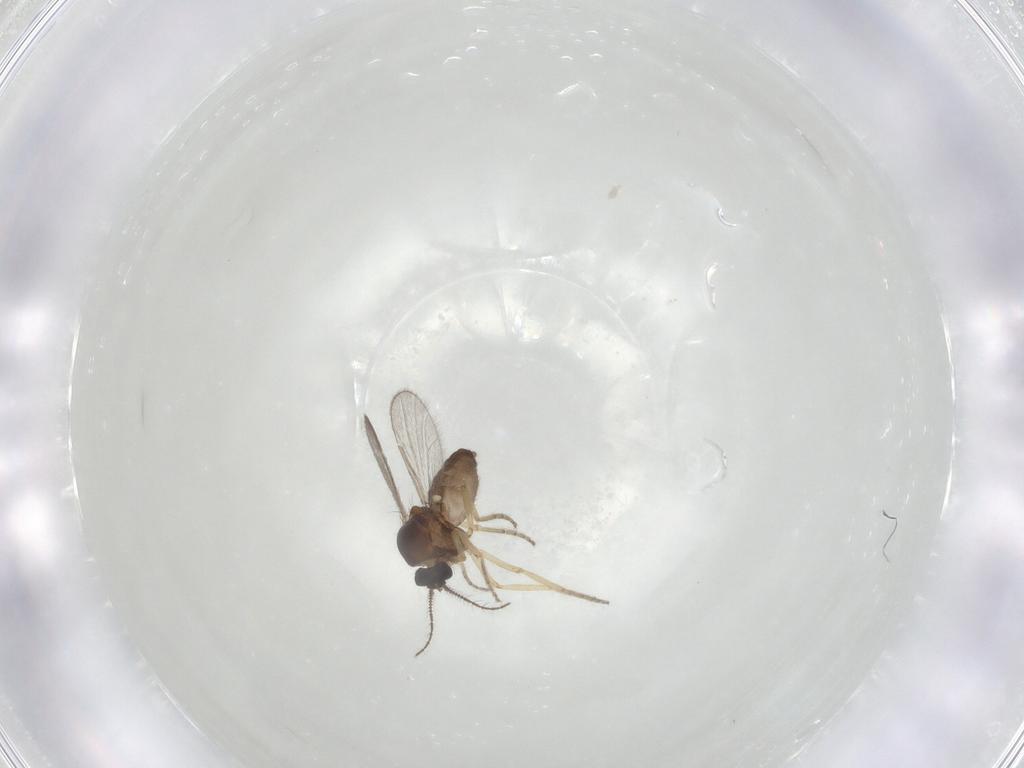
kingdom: Animalia
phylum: Arthropoda
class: Insecta
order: Diptera
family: Ceratopogonidae
